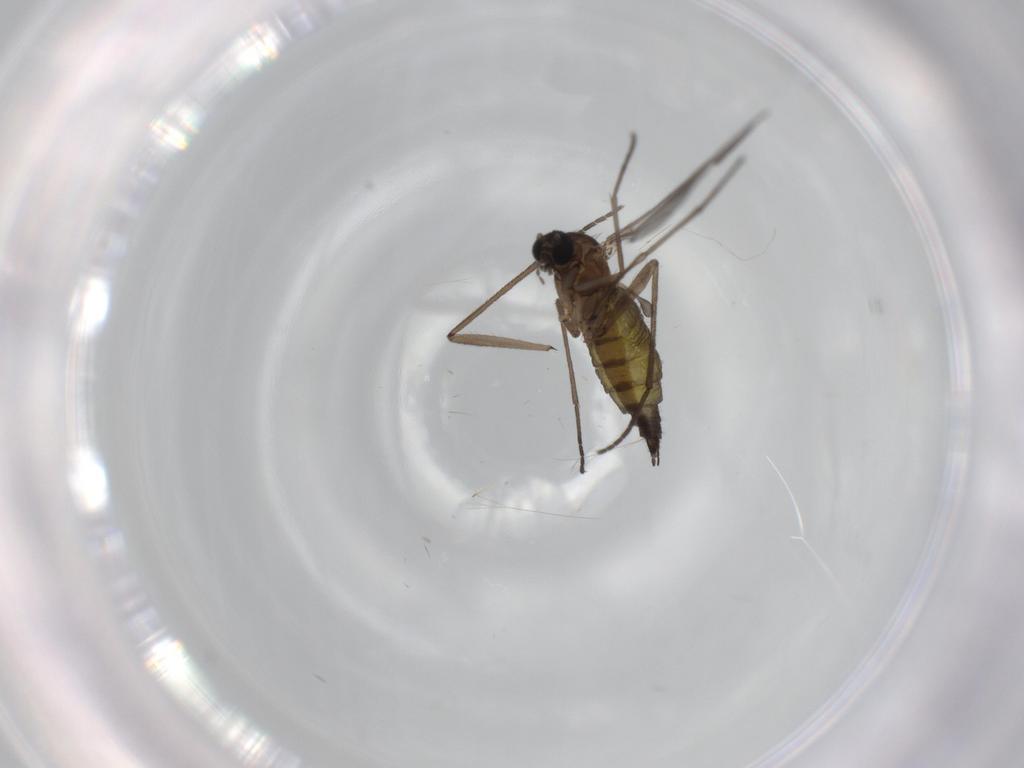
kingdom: Animalia
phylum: Arthropoda
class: Insecta
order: Diptera
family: Sciaridae
